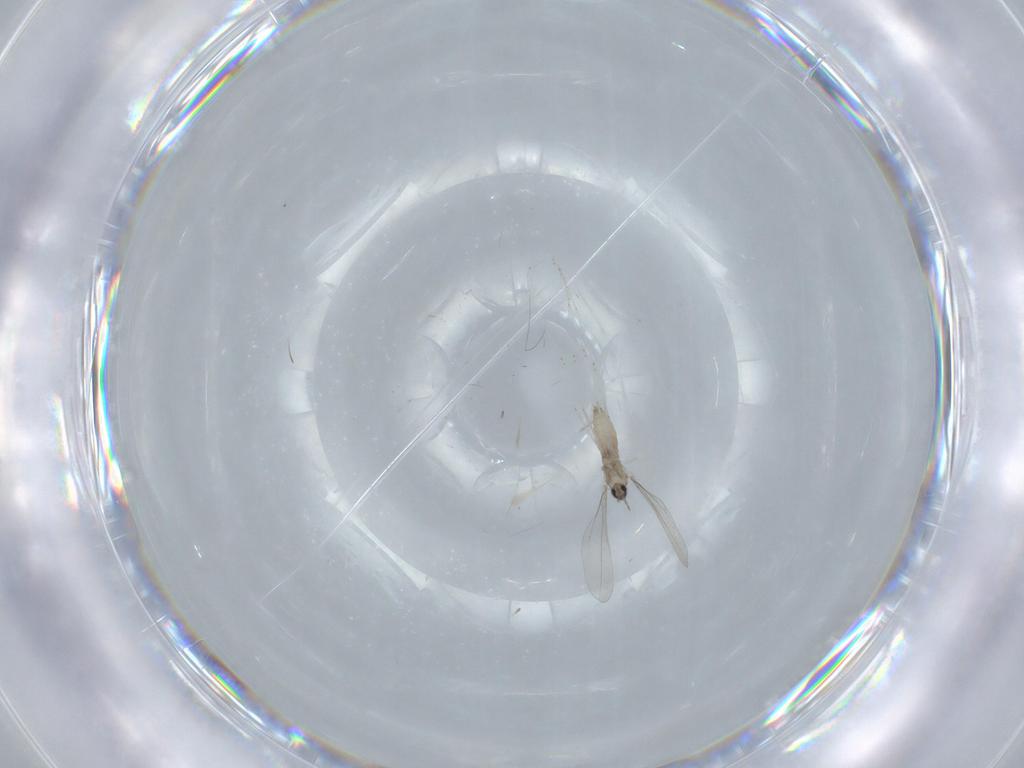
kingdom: Animalia
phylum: Arthropoda
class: Insecta
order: Diptera
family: Cecidomyiidae
